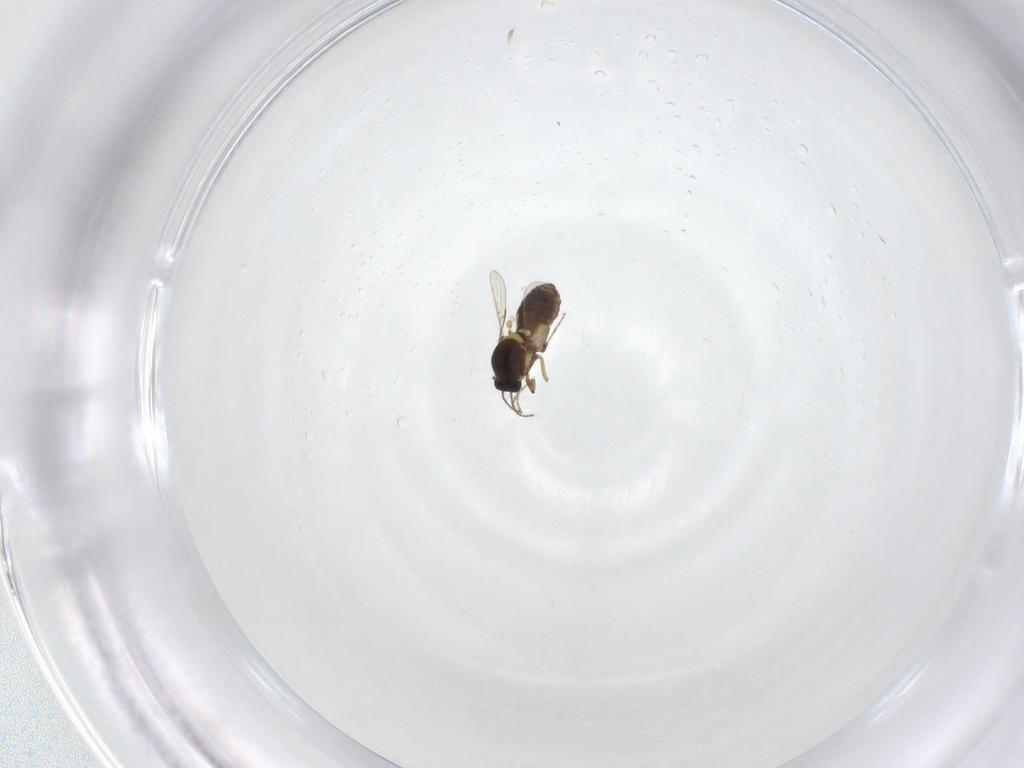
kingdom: Animalia
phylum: Arthropoda
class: Insecta
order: Diptera
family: Ceratopogonidae
